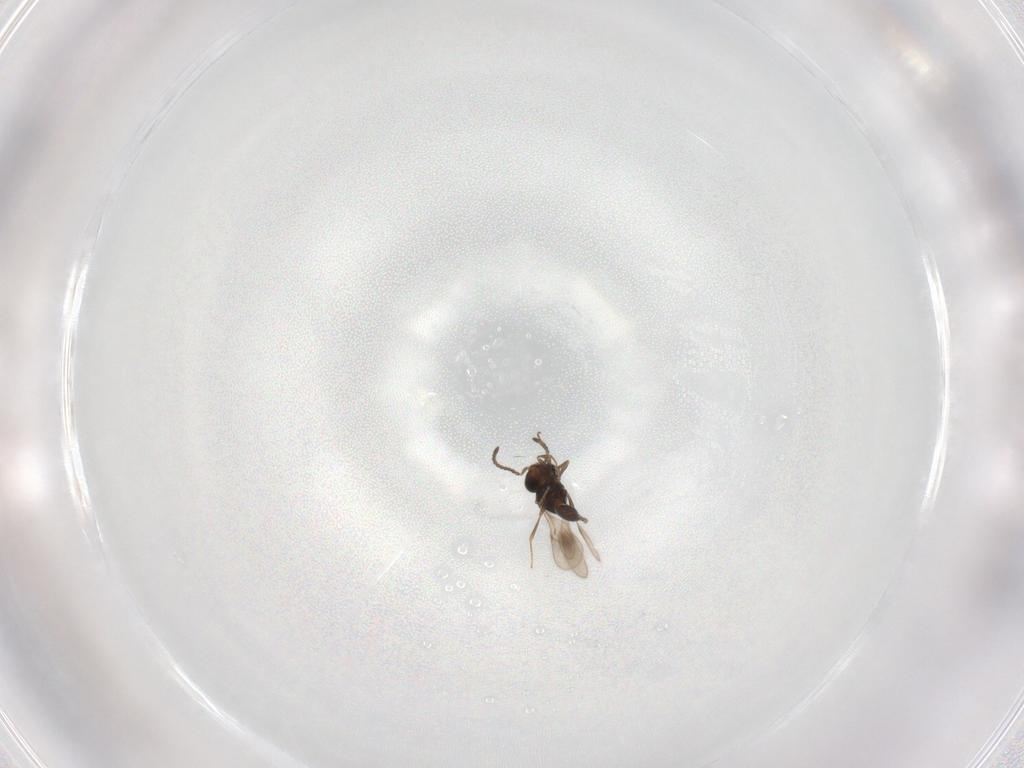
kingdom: Animalia
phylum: Arthropoda
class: Insecta
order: Hymenoptera
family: Scelionidae
